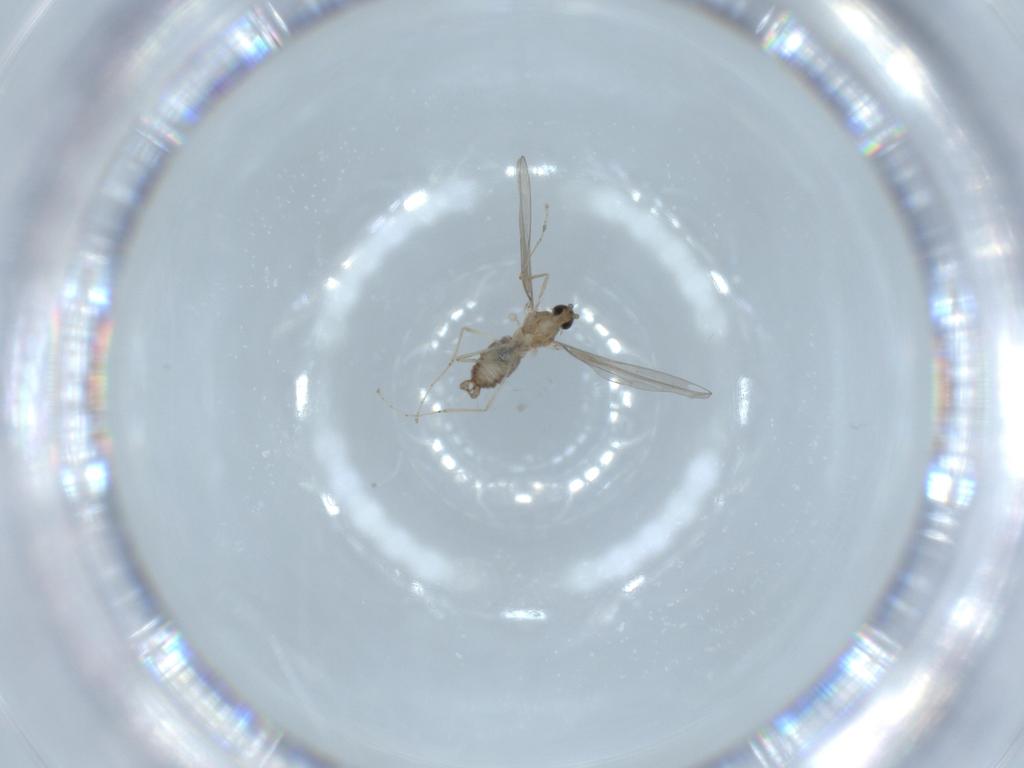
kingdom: Animalia
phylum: Arthropoda
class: Insecta
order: Diptera
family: Cecidomyiidae
